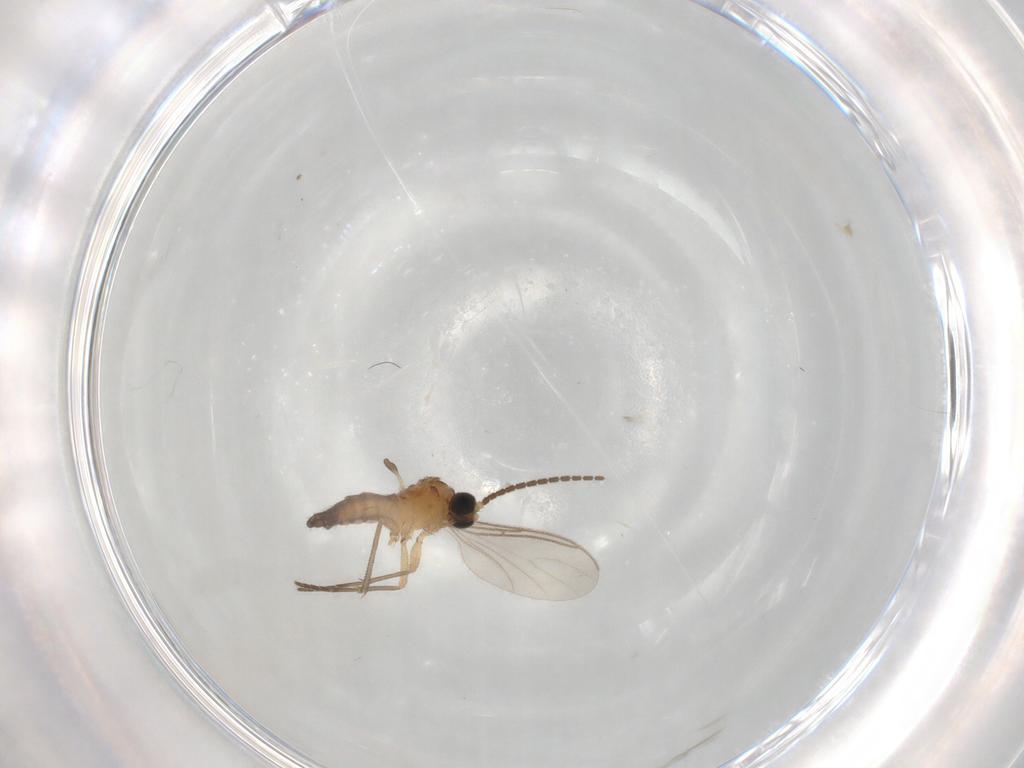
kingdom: Animalia
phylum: Arthropoda
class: Insecta
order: Diptera
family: Sciaridae
